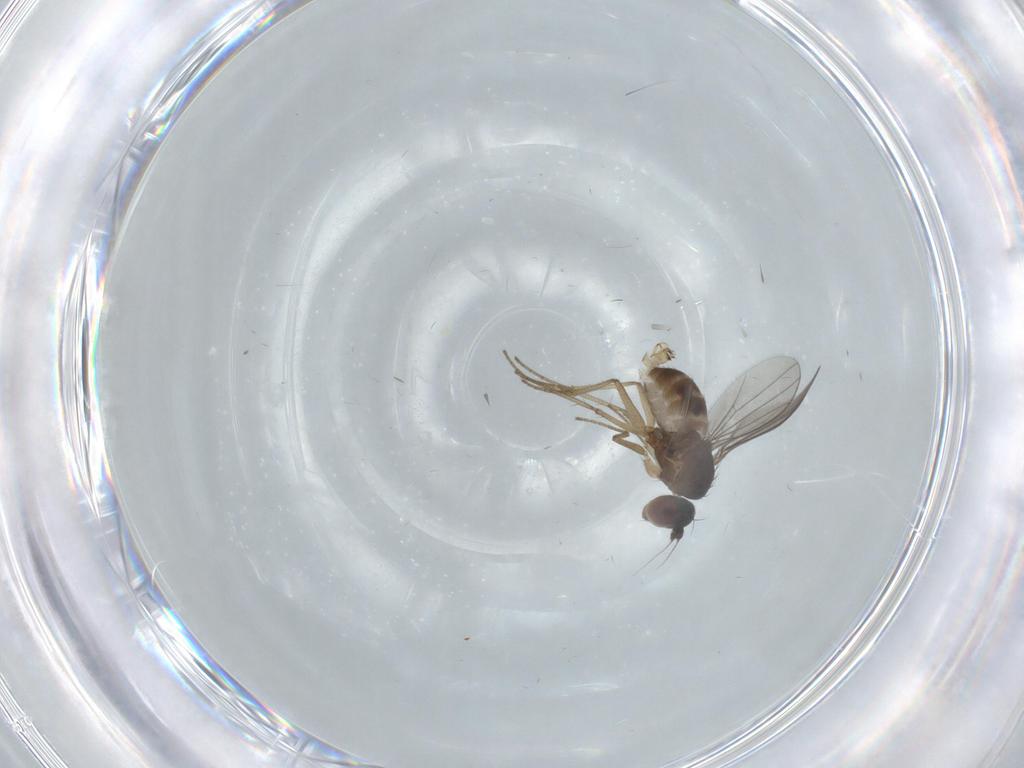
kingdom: Animalia
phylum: Arthropoda
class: Insecta
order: Diptera
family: Dolichopodidae
